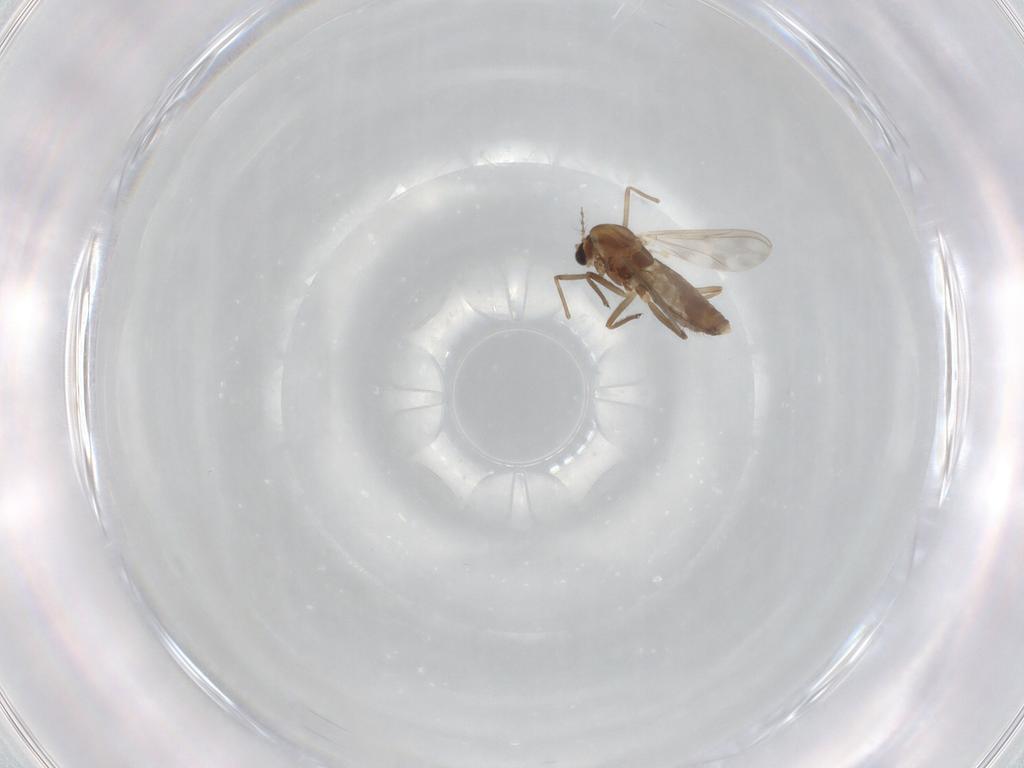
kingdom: Animalia
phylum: Arthropoda
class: Insecta
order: Diptera
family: Chironomidae
